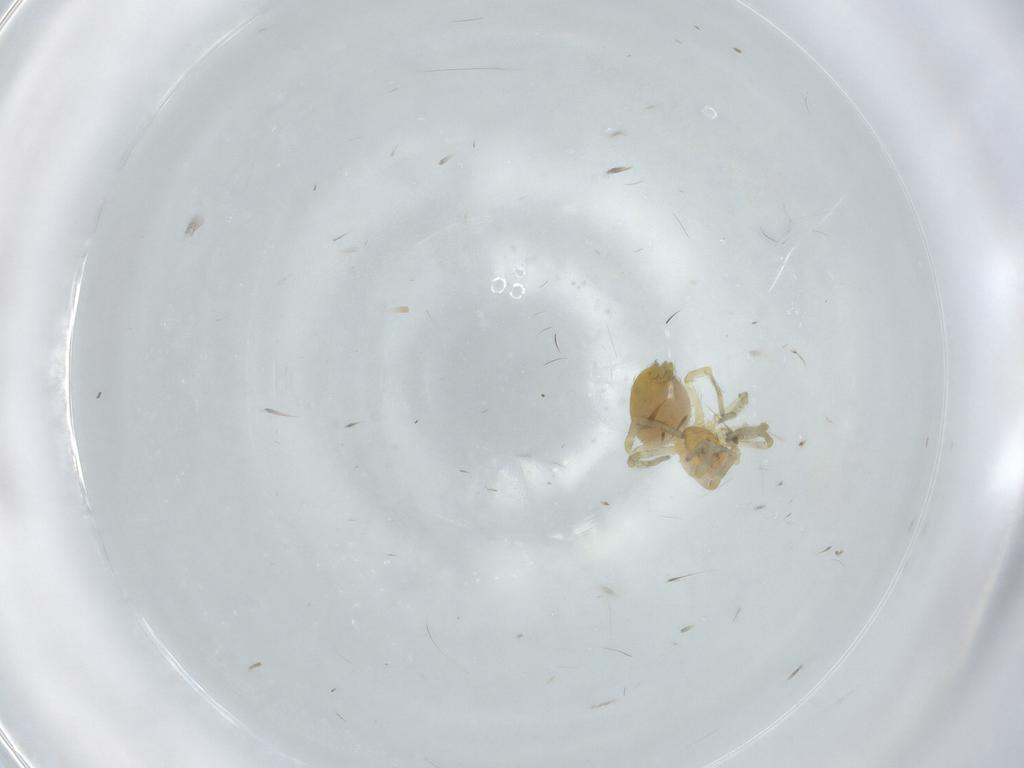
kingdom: Animalia
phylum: Arthropoda
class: Arachnida
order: Araneae
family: Dictynidae
